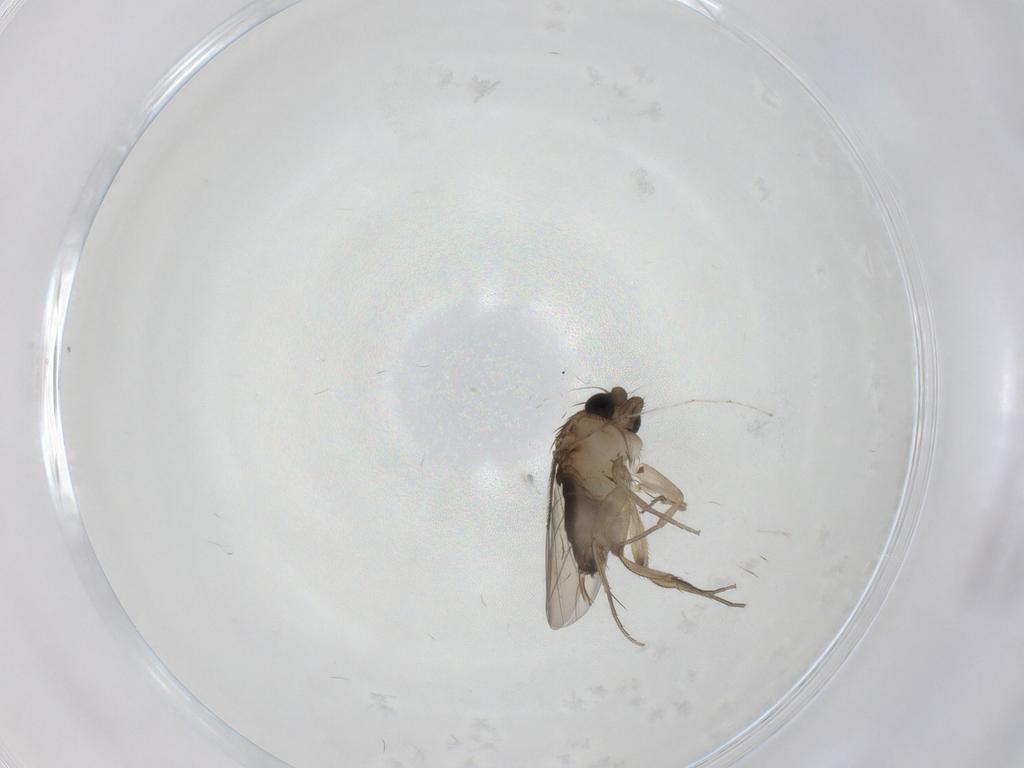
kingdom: Animalia
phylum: Arthropoda
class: Insecta
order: Diptera
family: Phoridae
